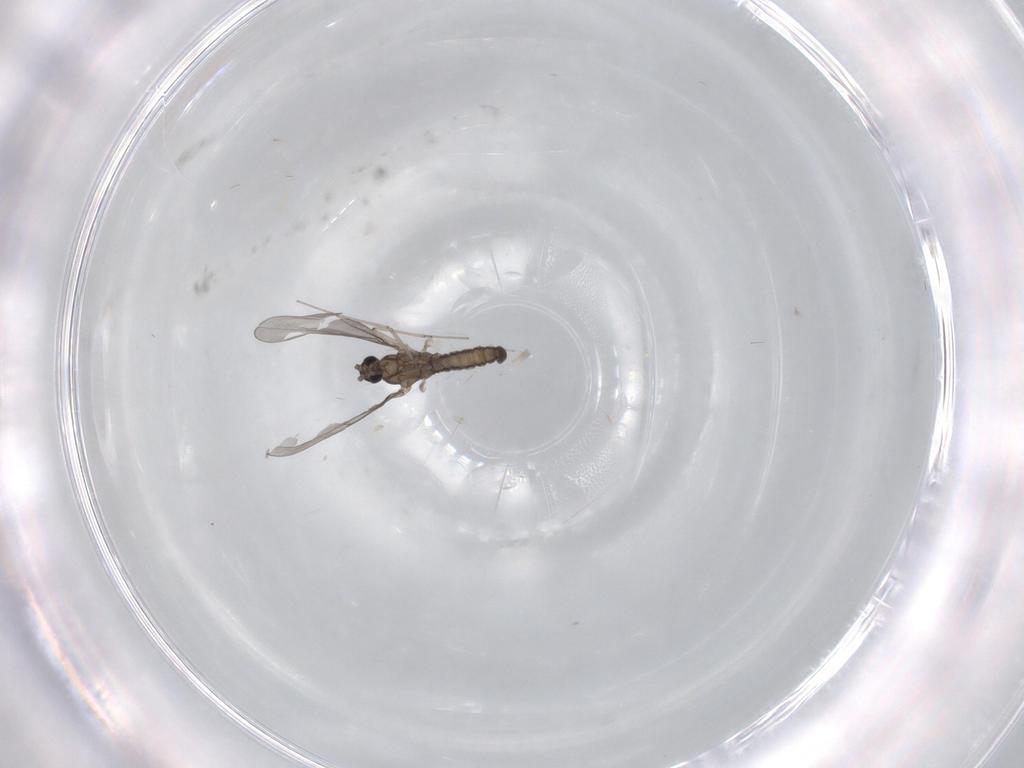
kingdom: Animalia
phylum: Arthropoda
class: Insecta
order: Diptera
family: Cecidomyiidae
